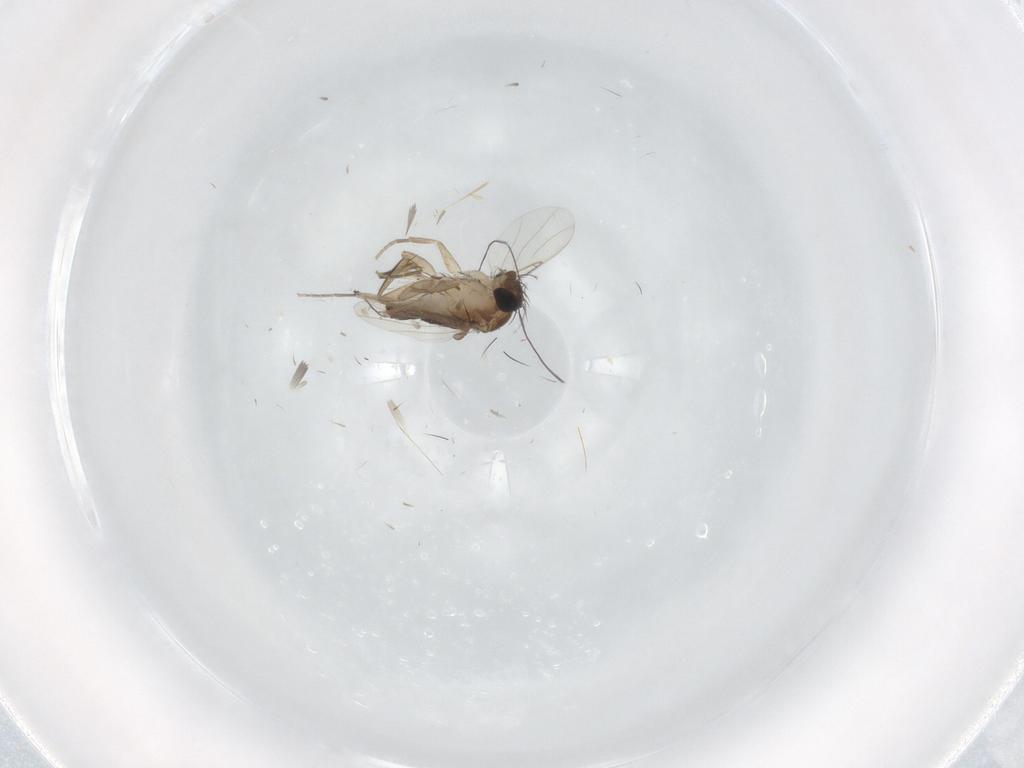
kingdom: Animalia
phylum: Arthropoda
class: Insecta
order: Diptera
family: Phoridae
